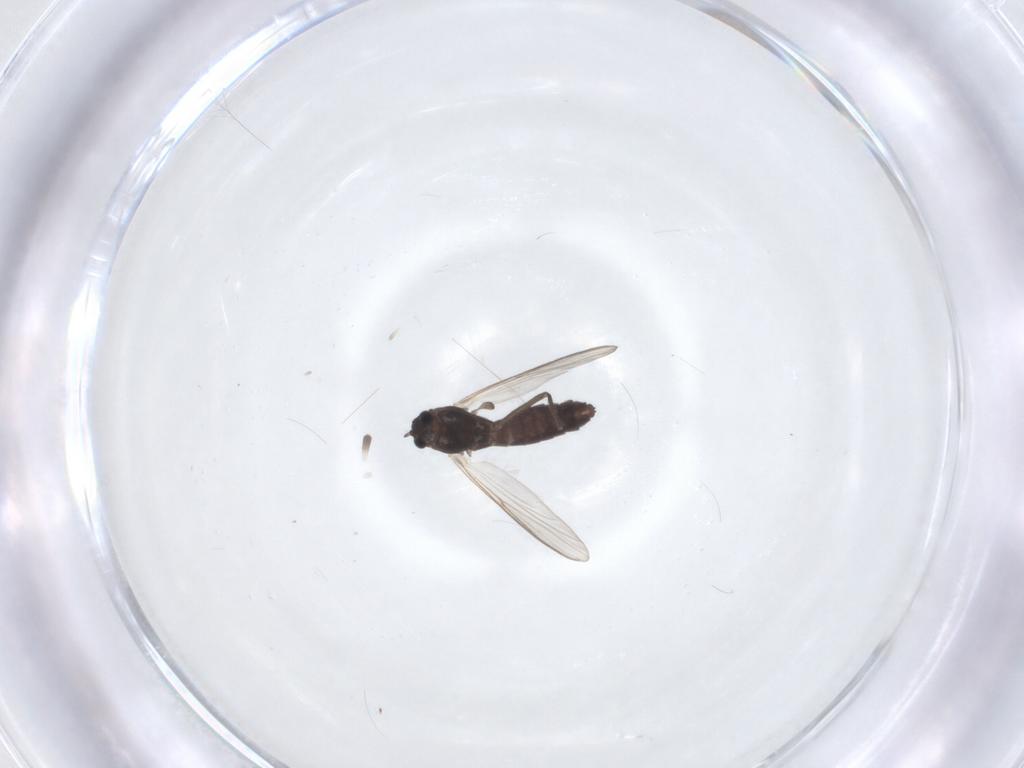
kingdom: Animalia
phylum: Arthropoda
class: Insecta
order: Diptera
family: Chironomidae
